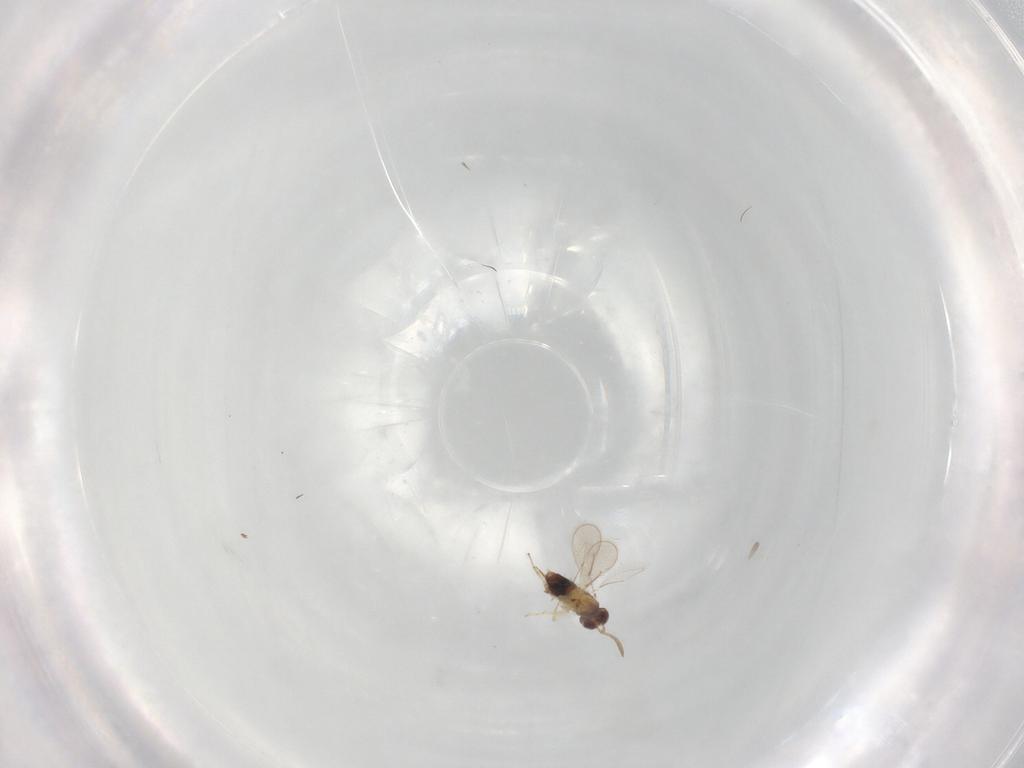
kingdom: Animalia
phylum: Arthropoda
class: Insecta
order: Hymenoptera
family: Aphelinidae
